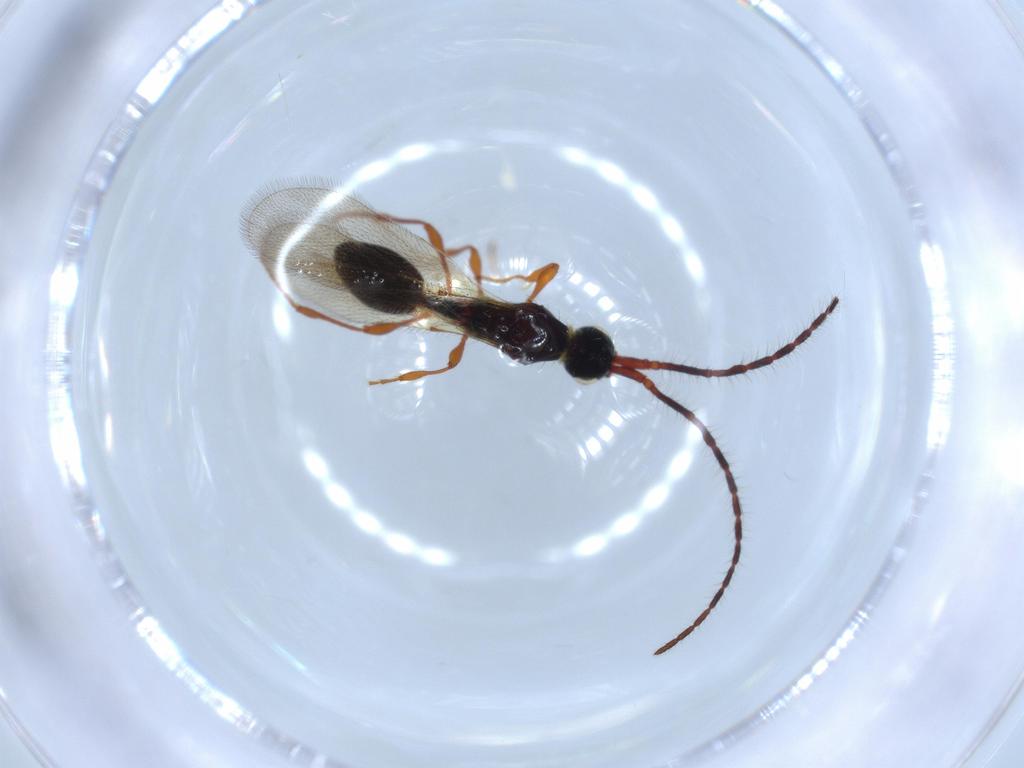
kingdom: Animalia
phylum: Arthropoda
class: Insecta
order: Hymenoptera
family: Diapriidae
